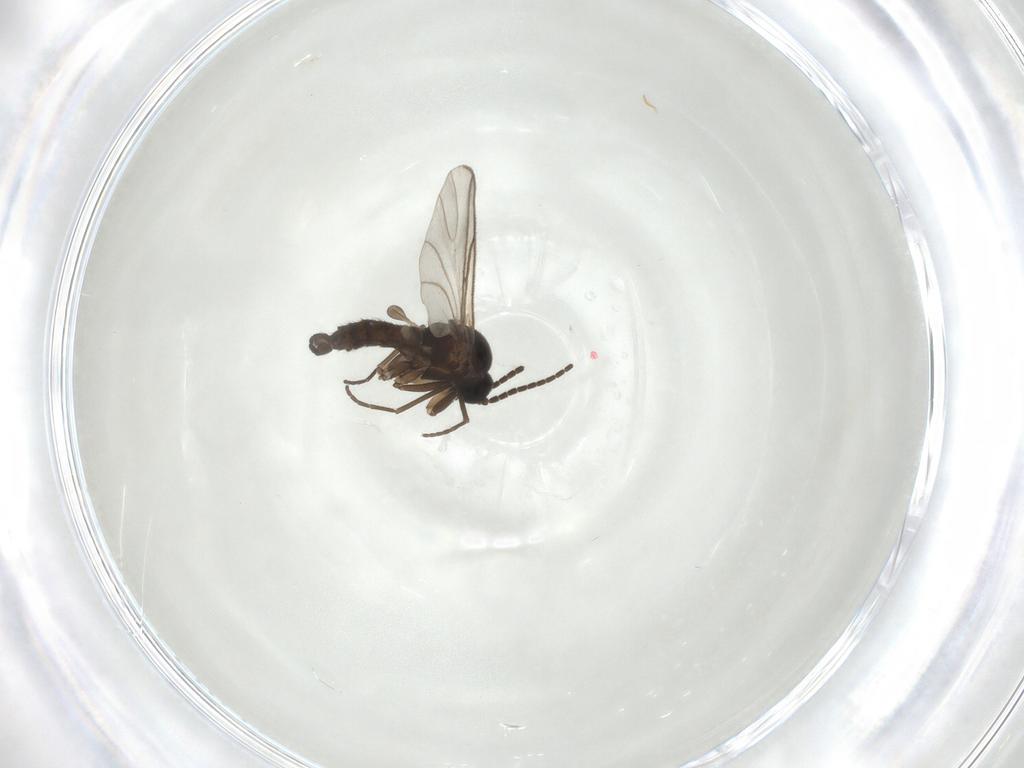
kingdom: Animalia
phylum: Arthropoda
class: Insecta
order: Diptera
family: Sciaridae
